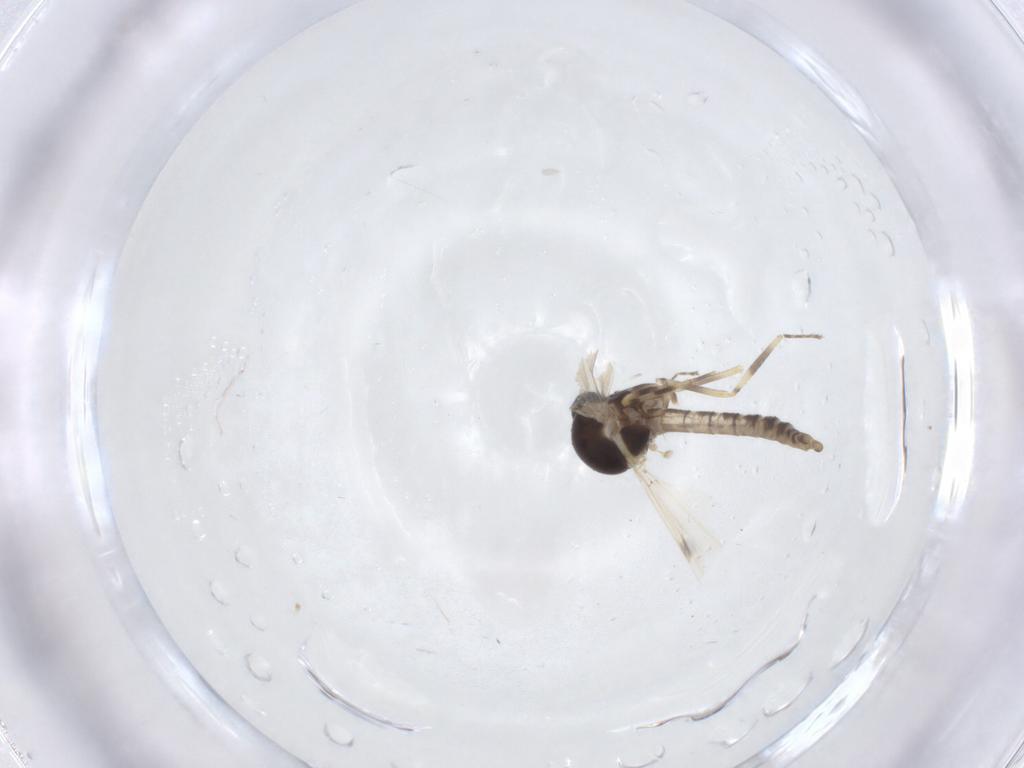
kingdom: Animalia
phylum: Arthropoda
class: Insecta
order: Diptera
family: Ceratopogonidae
